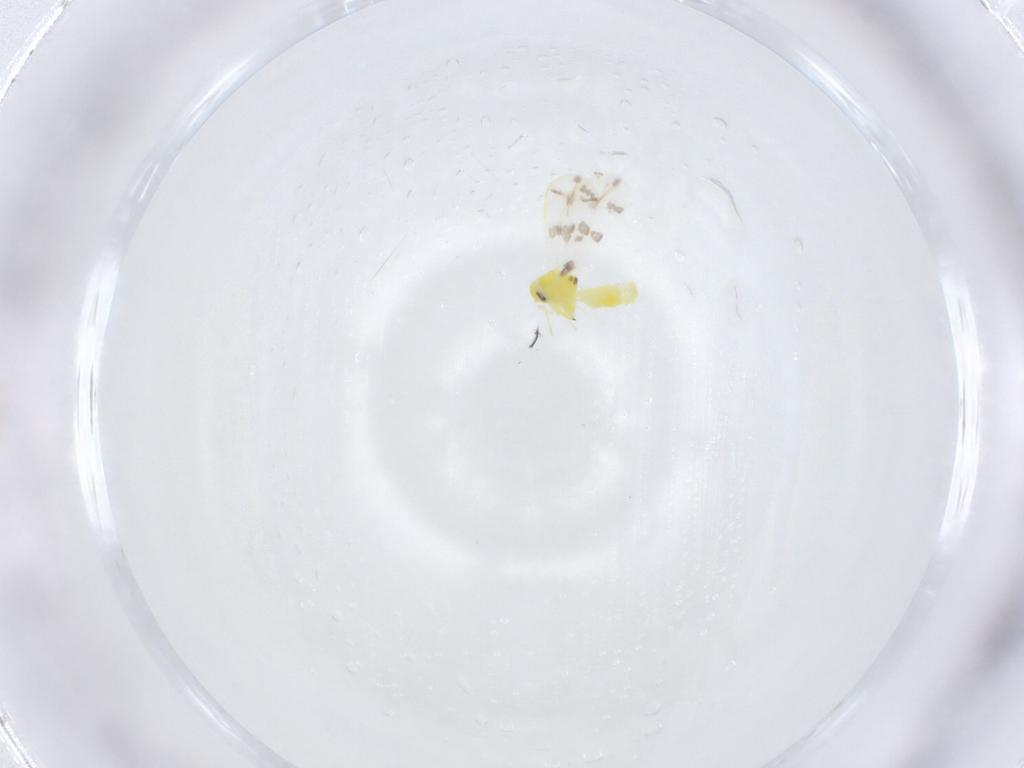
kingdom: Animalia
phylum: Arthropoda
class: Insecta
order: Hemiptera
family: Aleyrodidae
